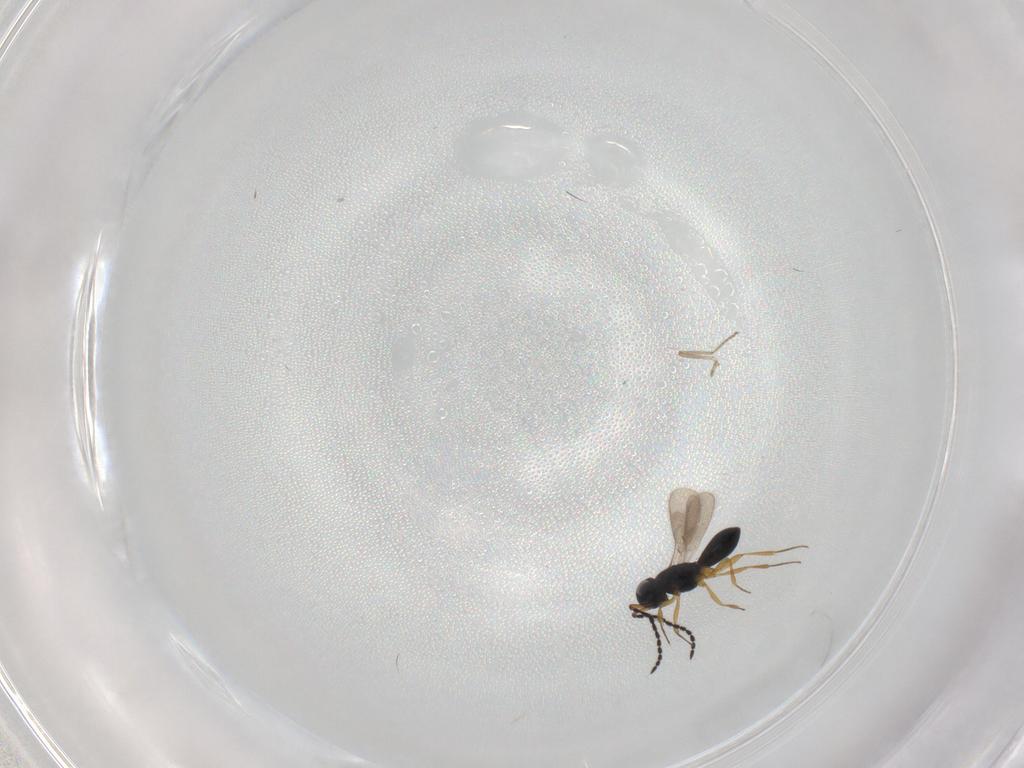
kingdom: Animalia
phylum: Arthropoda
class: Insecta
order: Hymenoptera
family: Scelionidae
